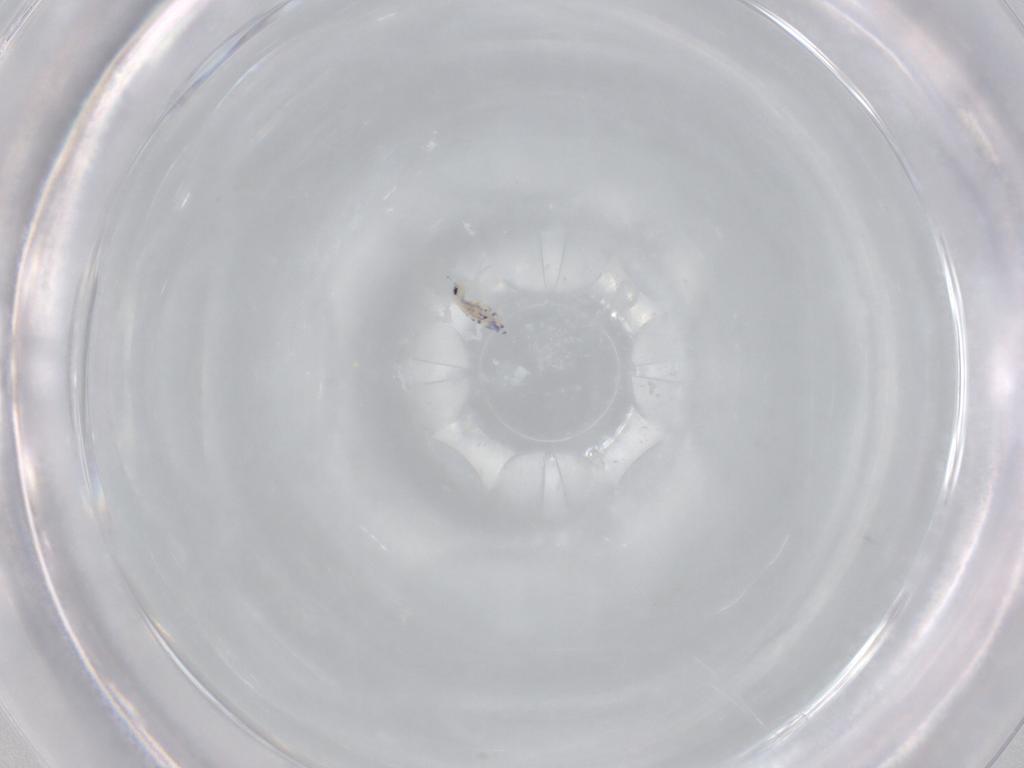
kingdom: Animalia
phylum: Arthropoda
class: Collembola
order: Entomobryomorpha
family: Entomobryidae
